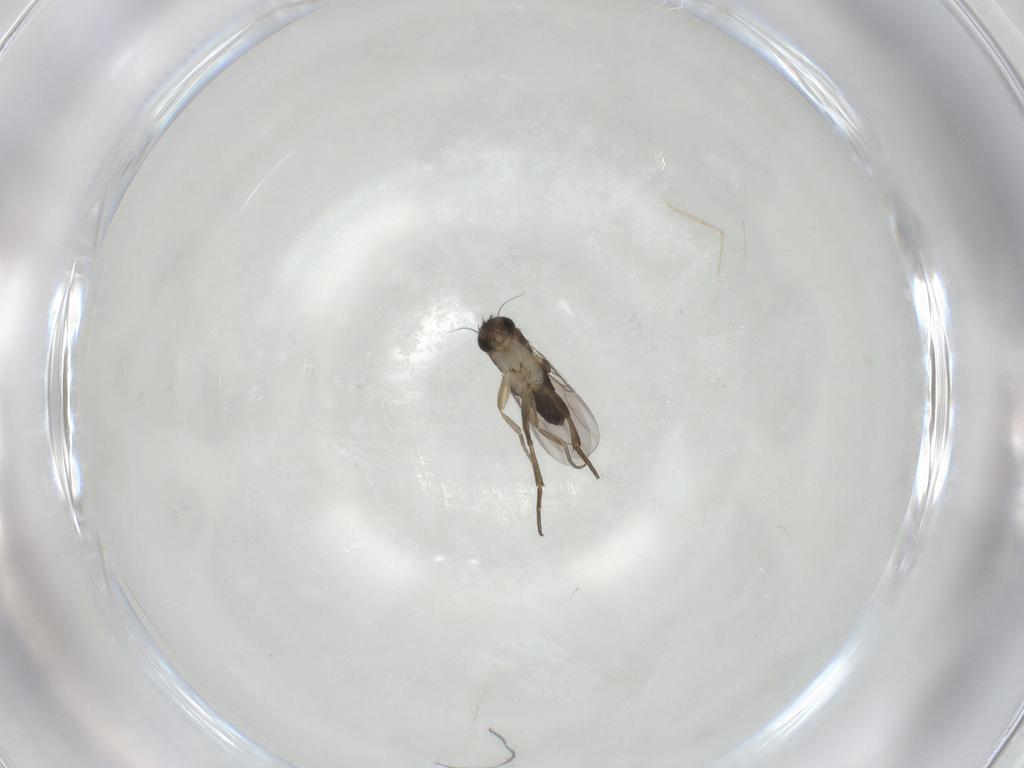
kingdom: Animalia
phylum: Arthropoda
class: Insecta
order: Diptera
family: Phoridae
